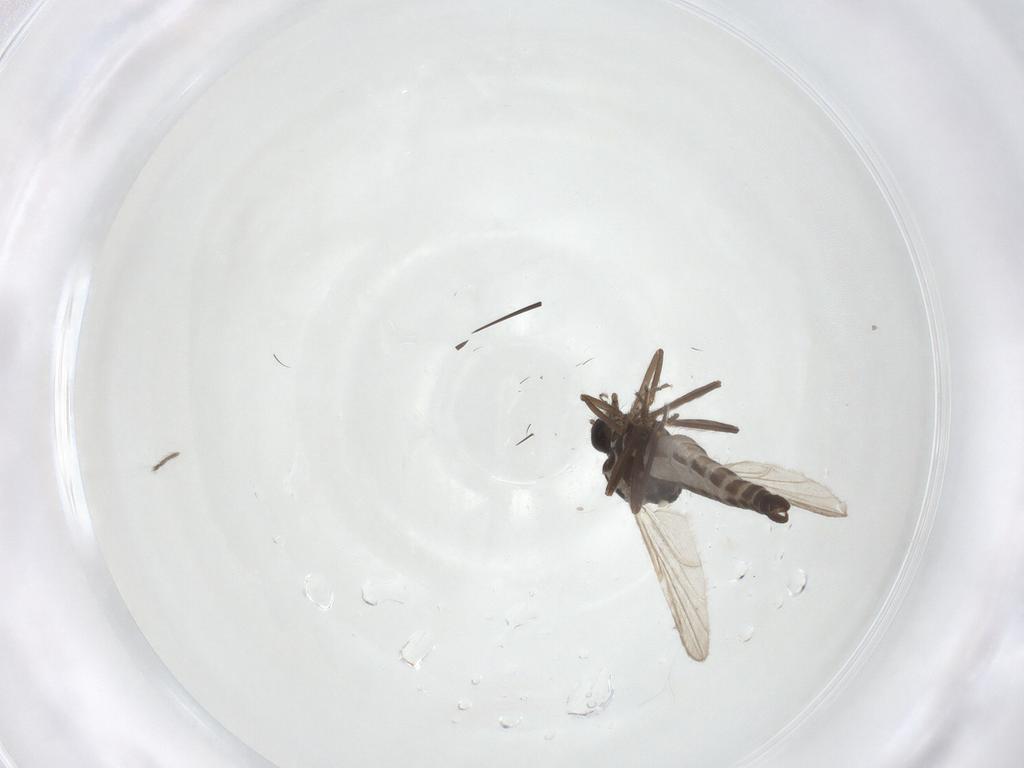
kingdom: Animalia
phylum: Arthropoda
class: Insecta
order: Diptera
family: Ceratopogonidae
